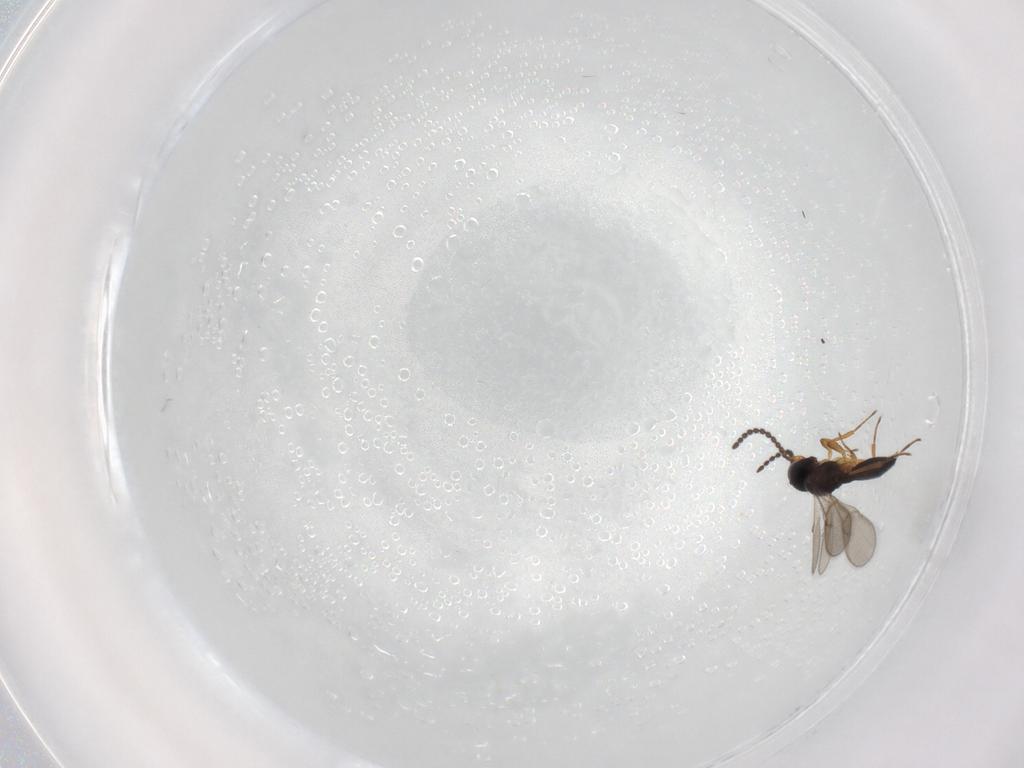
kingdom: Animalia
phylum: Arthropoda
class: Insecta
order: Hymenoptera
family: Scelionidae
